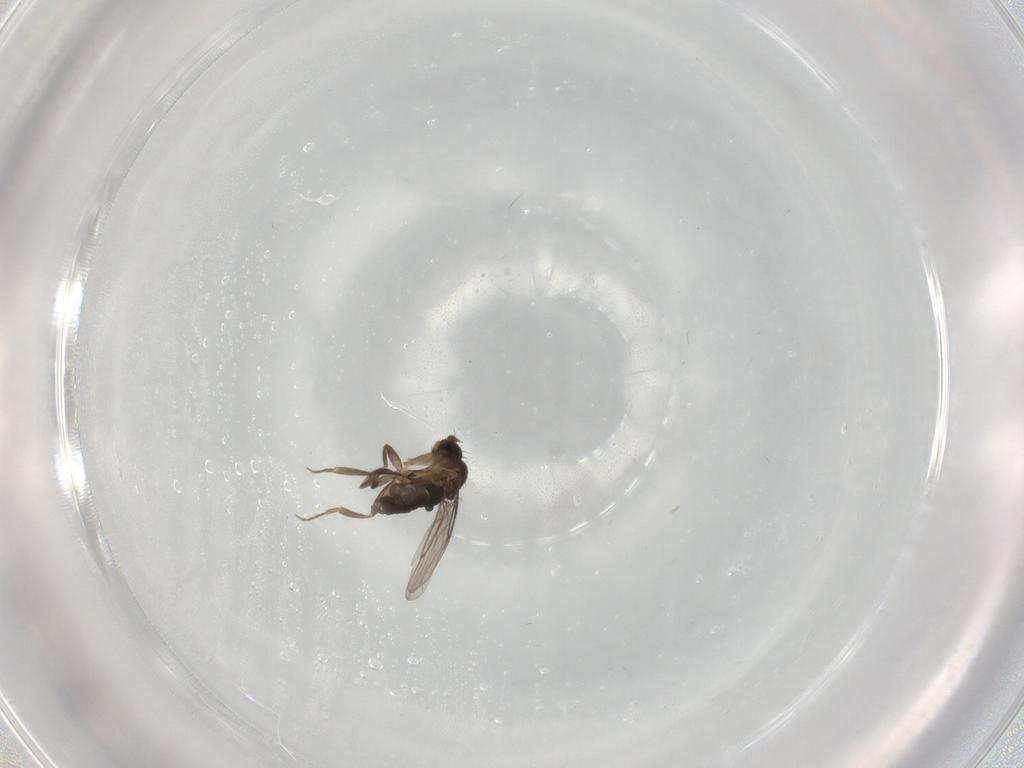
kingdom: Animalia
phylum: Arthropoda
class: Insecta
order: Diptera
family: Phoridae
